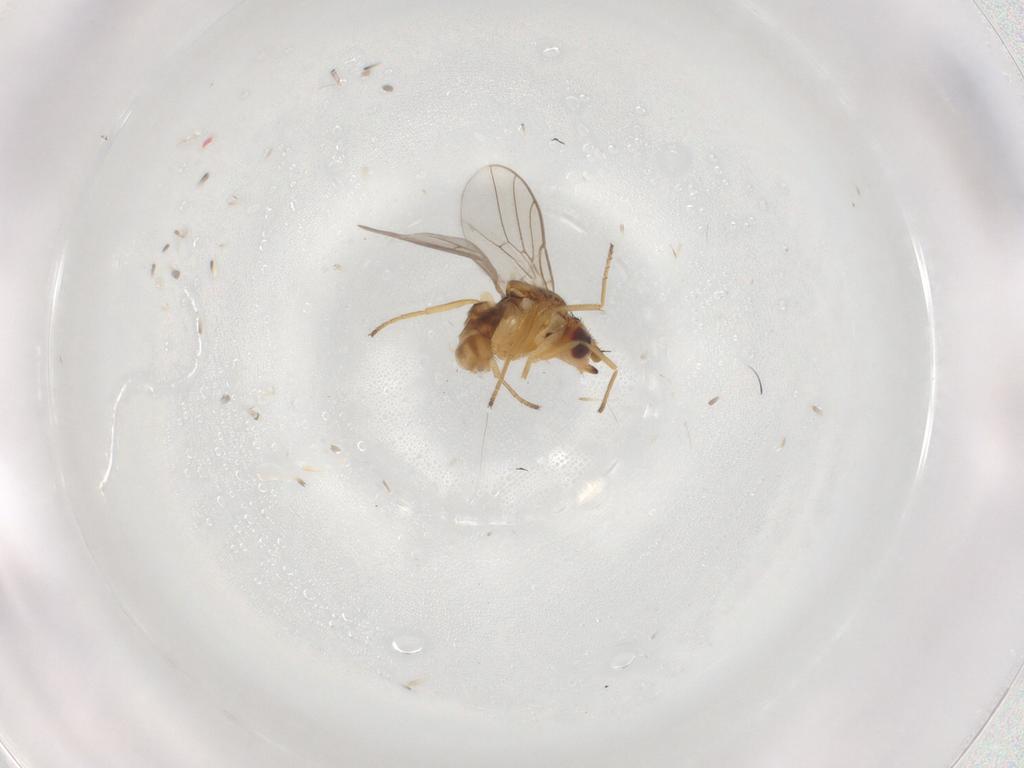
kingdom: Animalia
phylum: Arthropoda
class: Insecta
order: Diptera
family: Chloropidae
